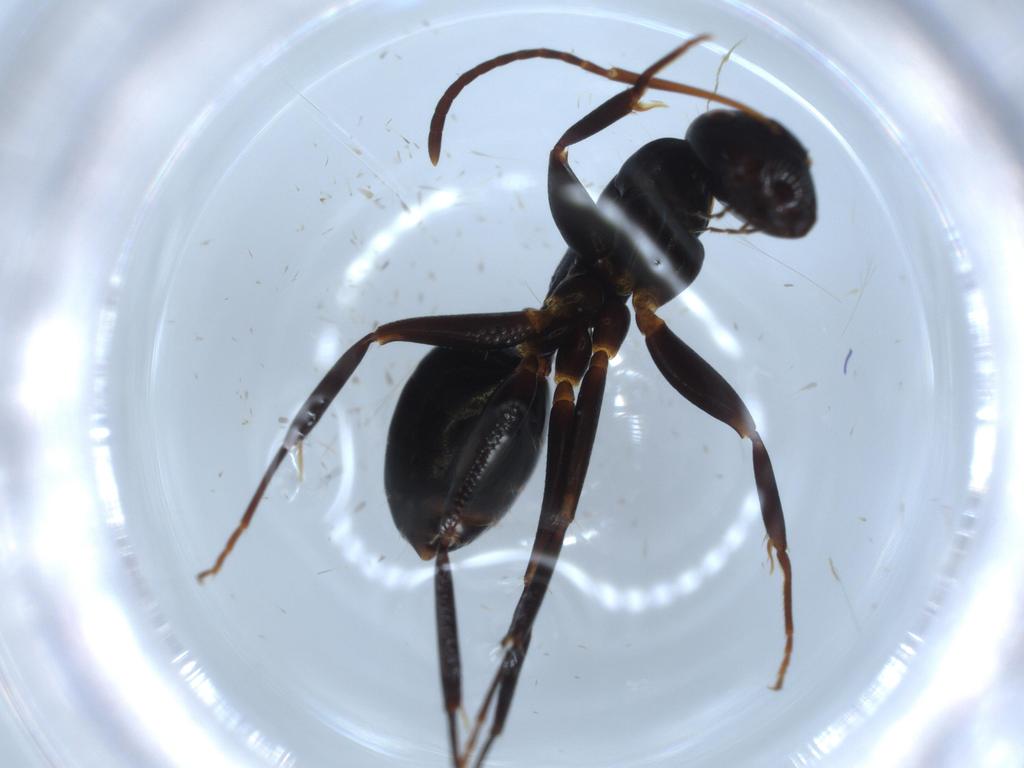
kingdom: Animalia
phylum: Arthropoda
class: Insecta
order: Hymenoptera
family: Formicidae
